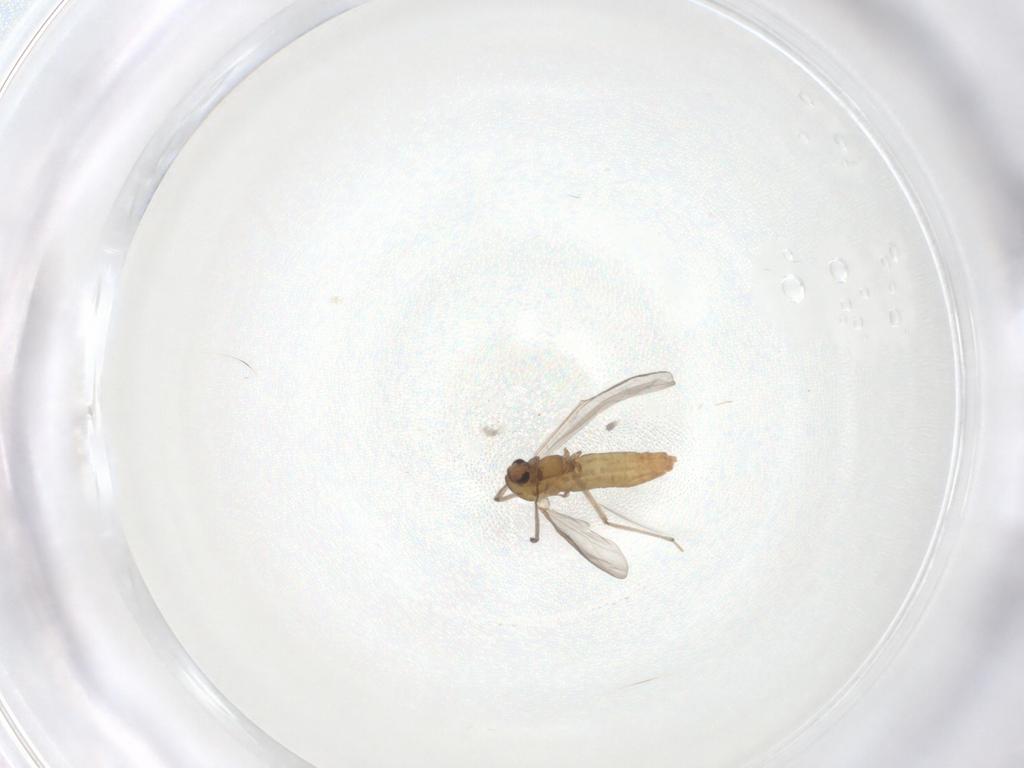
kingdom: Animalia
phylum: Arthropoda
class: Insecta
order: Diptera
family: Chironomidae
